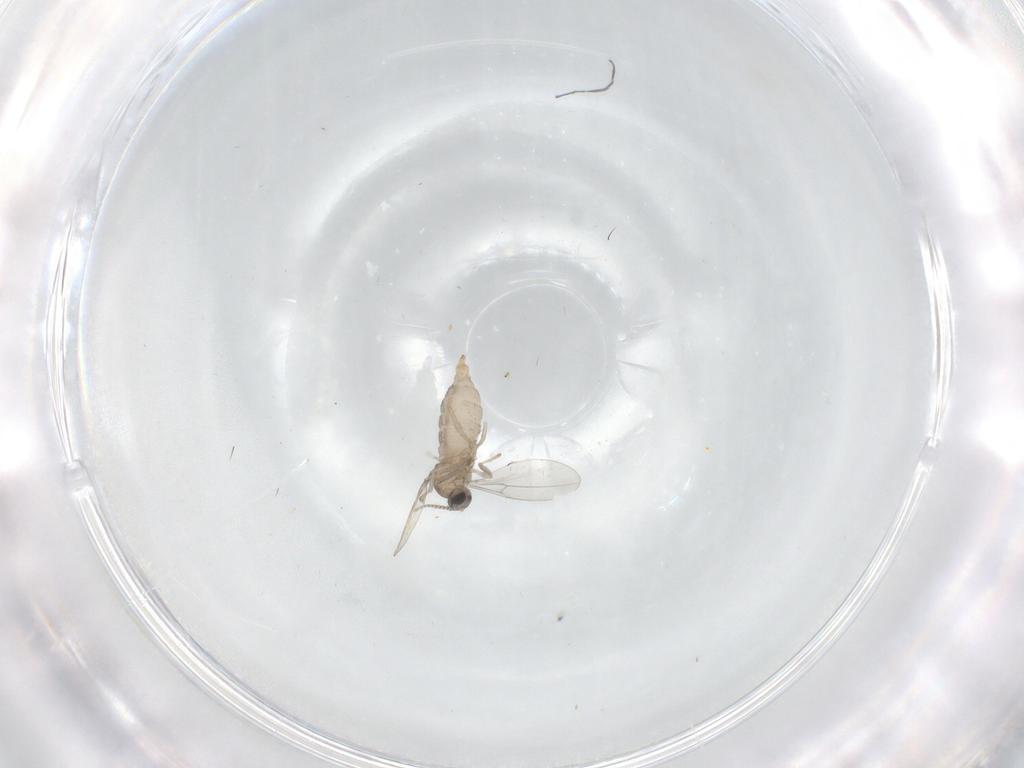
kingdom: Animalia
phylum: Arthropoda
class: Insecta
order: Diptera
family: Cecidomyiidae
